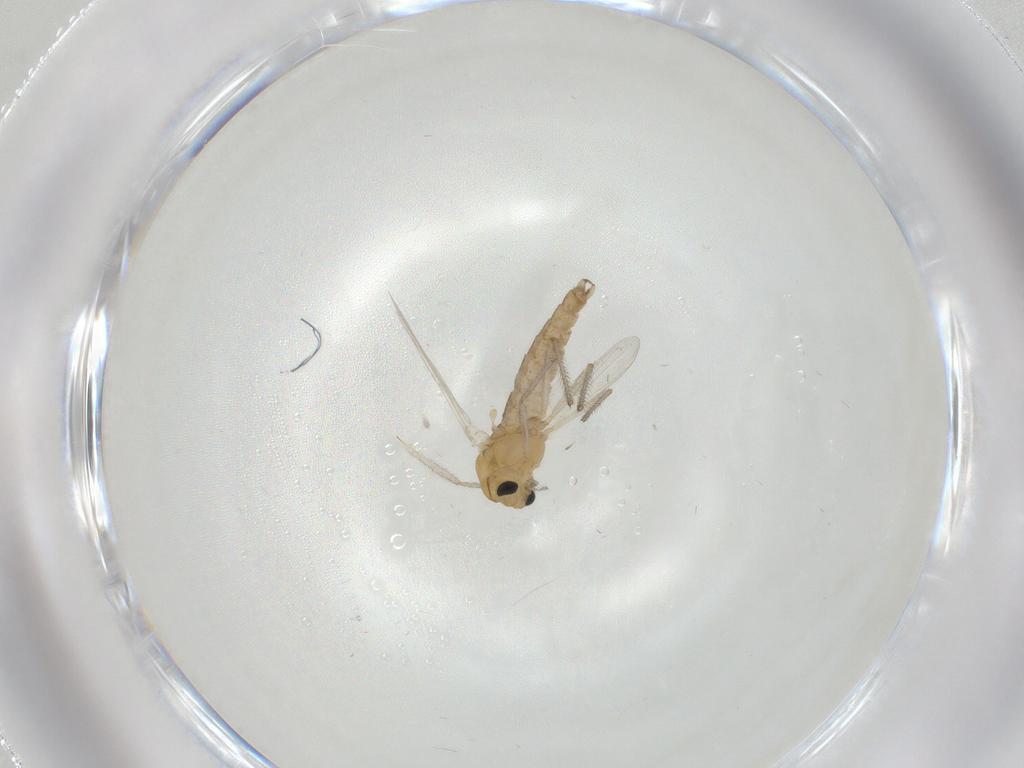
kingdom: Animalia
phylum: Arthropoda
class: Insecta
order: Diptera
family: Chironomidae
